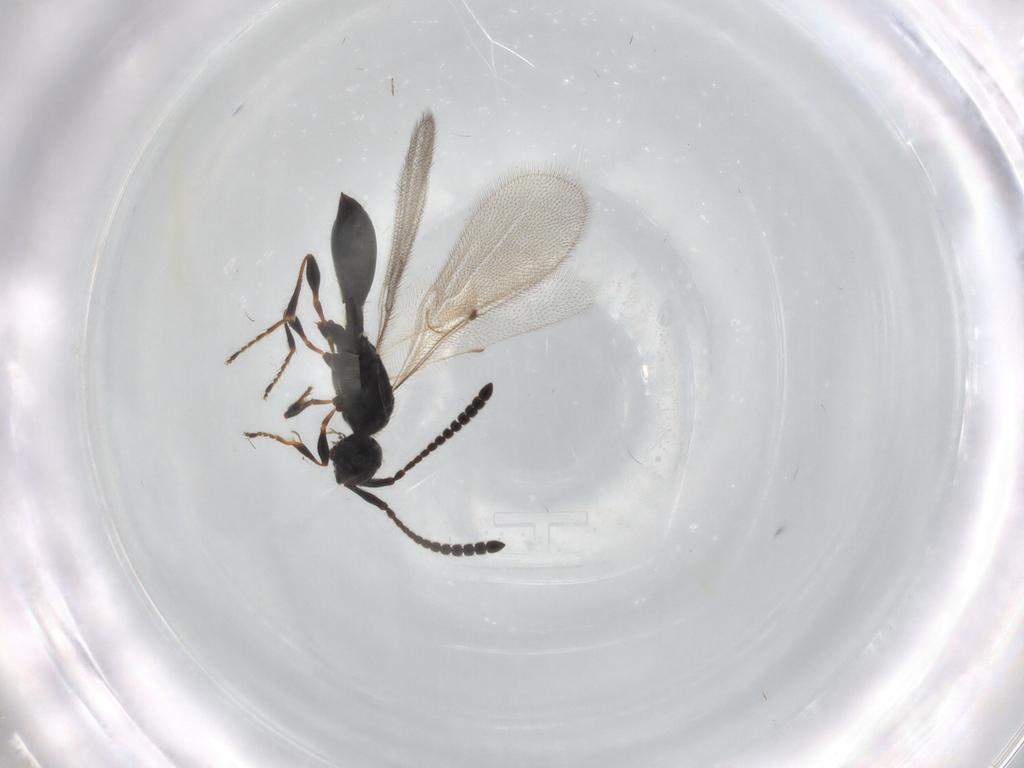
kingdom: Animalia
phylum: Arthropoda
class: Insecta
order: Hymenoptera
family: Diapriidae
